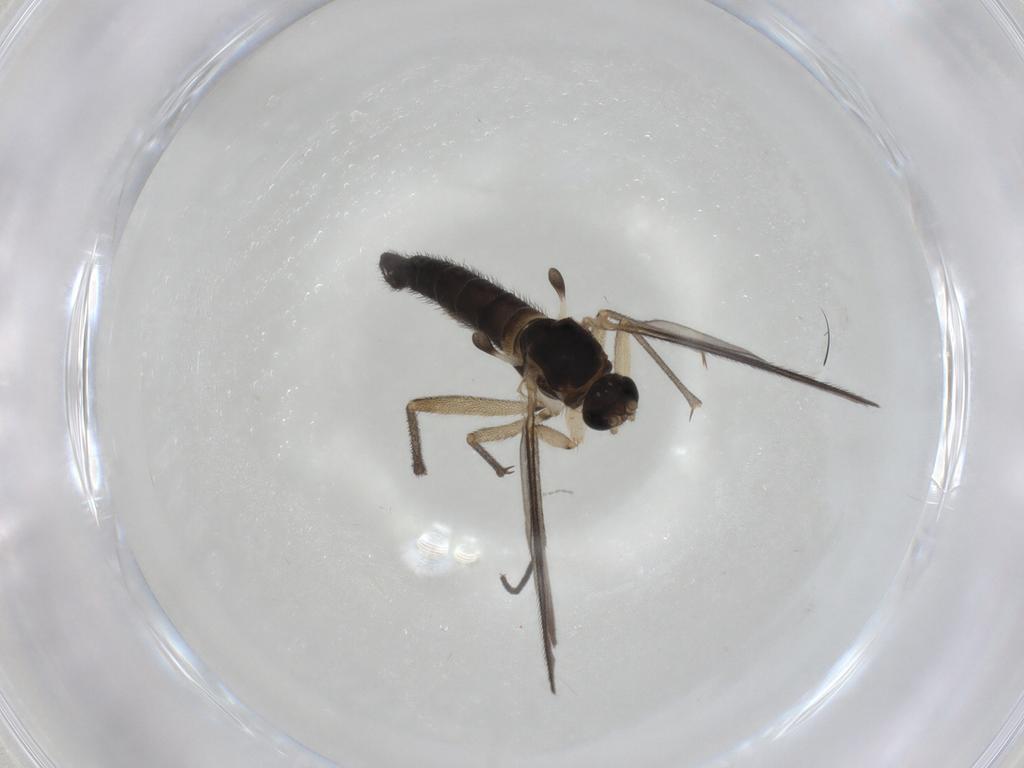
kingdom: Animalia
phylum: Arthropoda
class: Insecta
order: Diptera
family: Sciaridae
